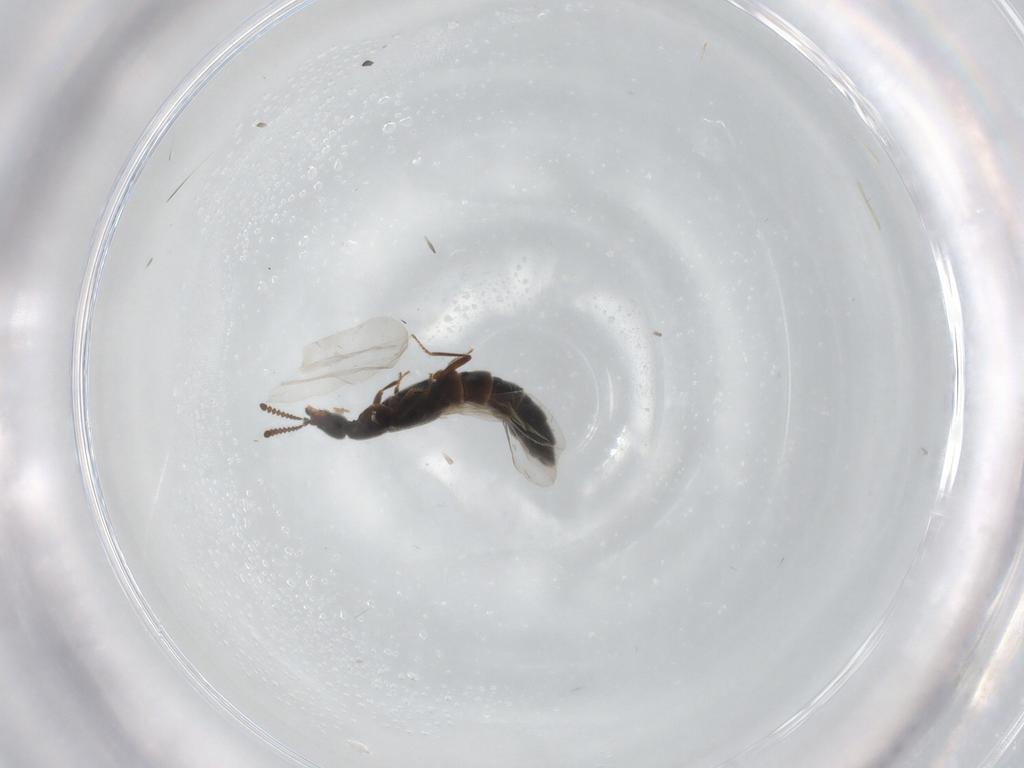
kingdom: Animalia
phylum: Arthropoda
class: Insecta
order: Coleoptera
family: Staphylinidae
